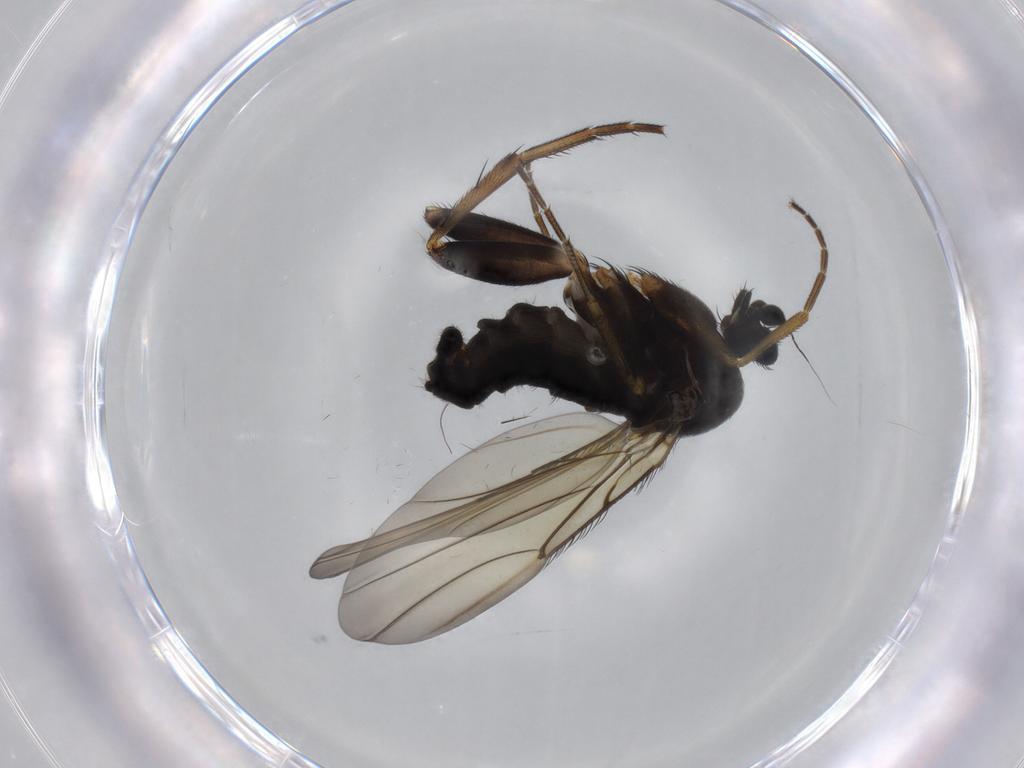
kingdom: Animalia
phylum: Arthropoda
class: Insecta
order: Diptera
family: Phoridae
